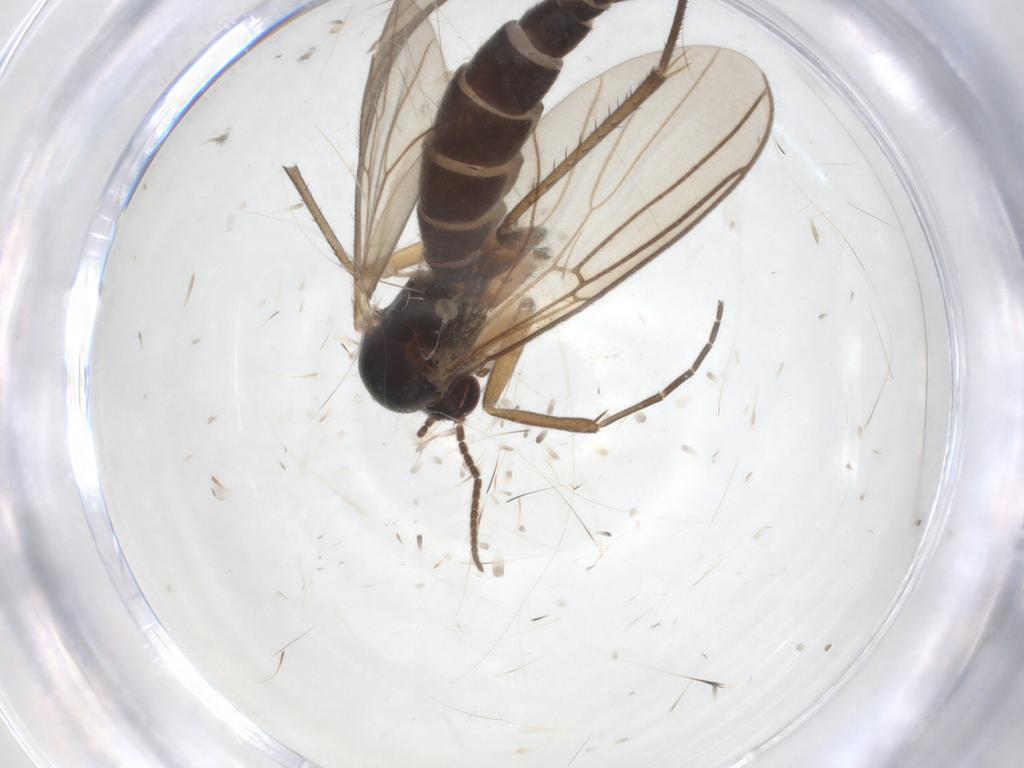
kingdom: Animalia
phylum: Arthropoda
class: Insecta
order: Diptera
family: Mycetophilidae
